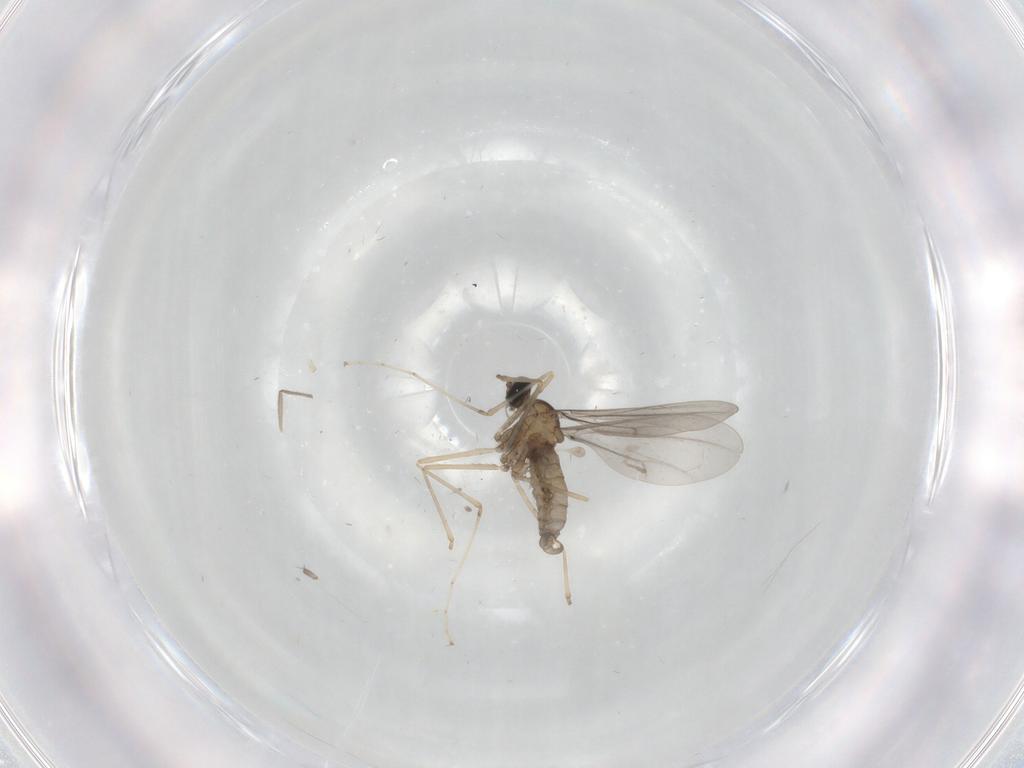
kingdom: Animalia
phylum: Arthropoda
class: Insecta
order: Diptera
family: Cecidomyiidae
